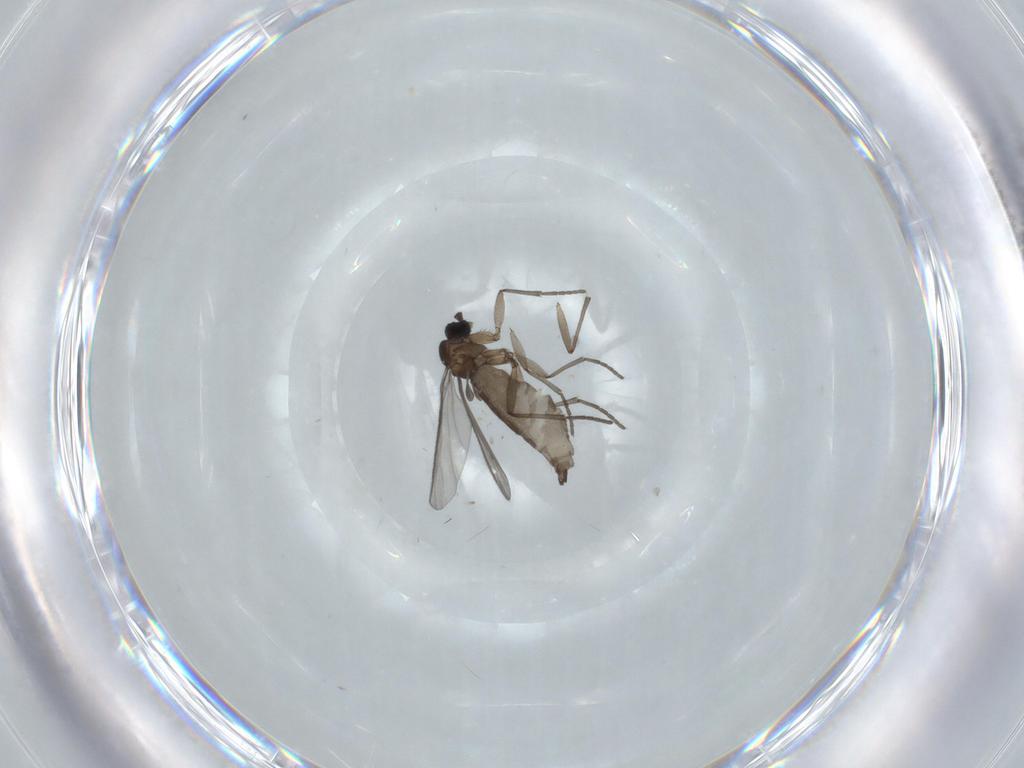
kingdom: Animalia
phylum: Arthropoda
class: Insecta
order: Diptera
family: Sciaridae
